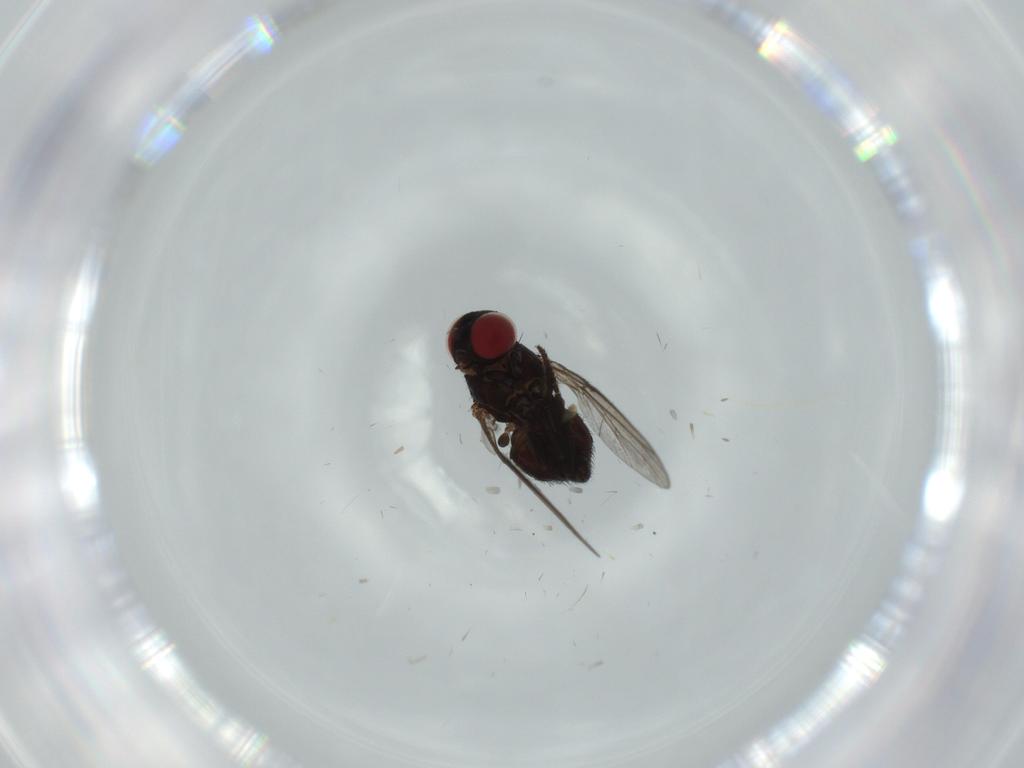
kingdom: Animalia
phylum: Arthropoda
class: Insecta
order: Diptera
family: Agromyzidae
